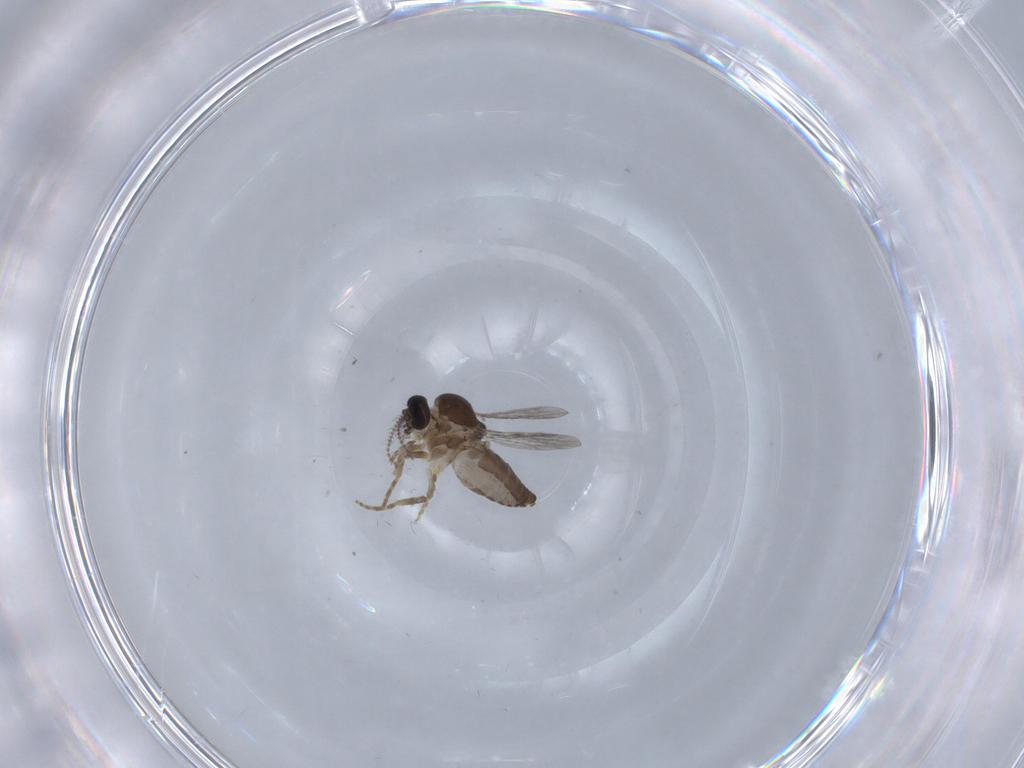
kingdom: Animalia
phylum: Arthropoda
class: Insecta
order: Diptera
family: Ceratopogonidae
